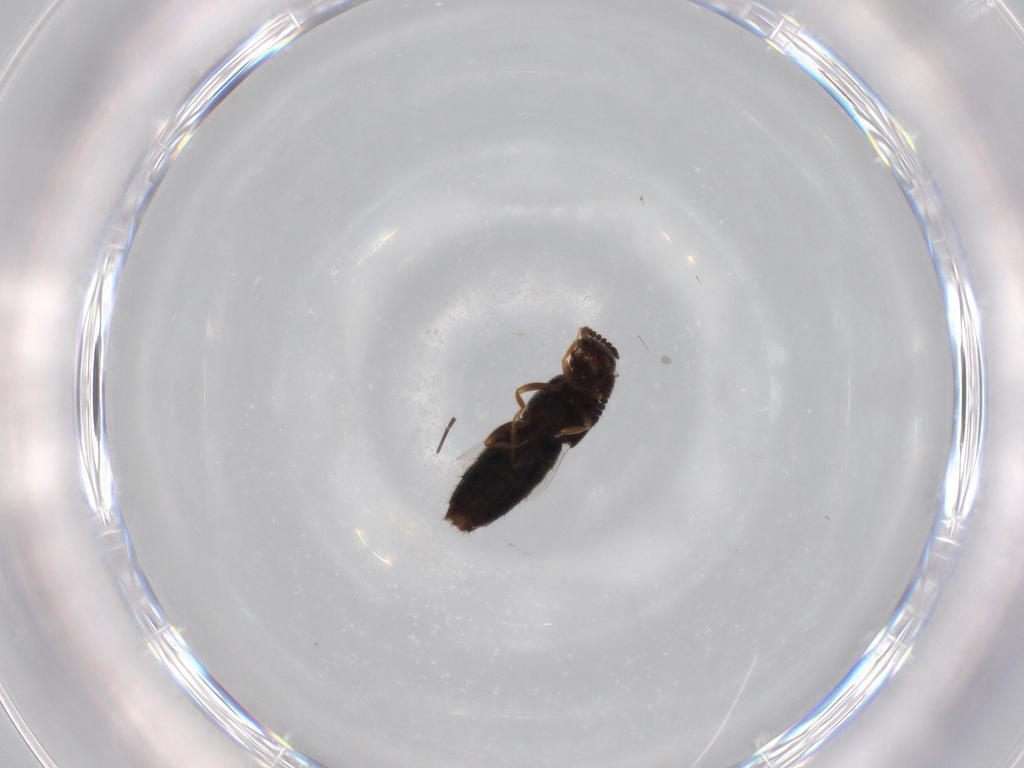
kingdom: Animalia
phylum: Arthropoda
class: Insecta
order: Coleoptera
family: Staphylinidae
